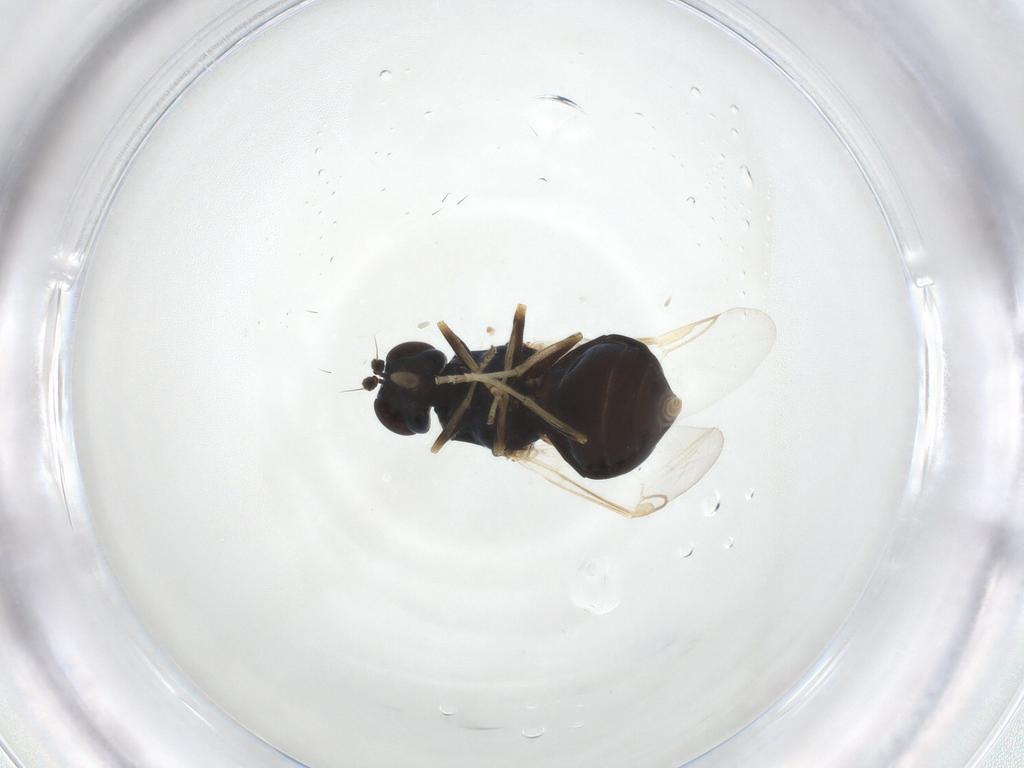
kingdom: Animalia
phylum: Arthropoda
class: Insecta
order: Diptera
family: Stratiomyidae
